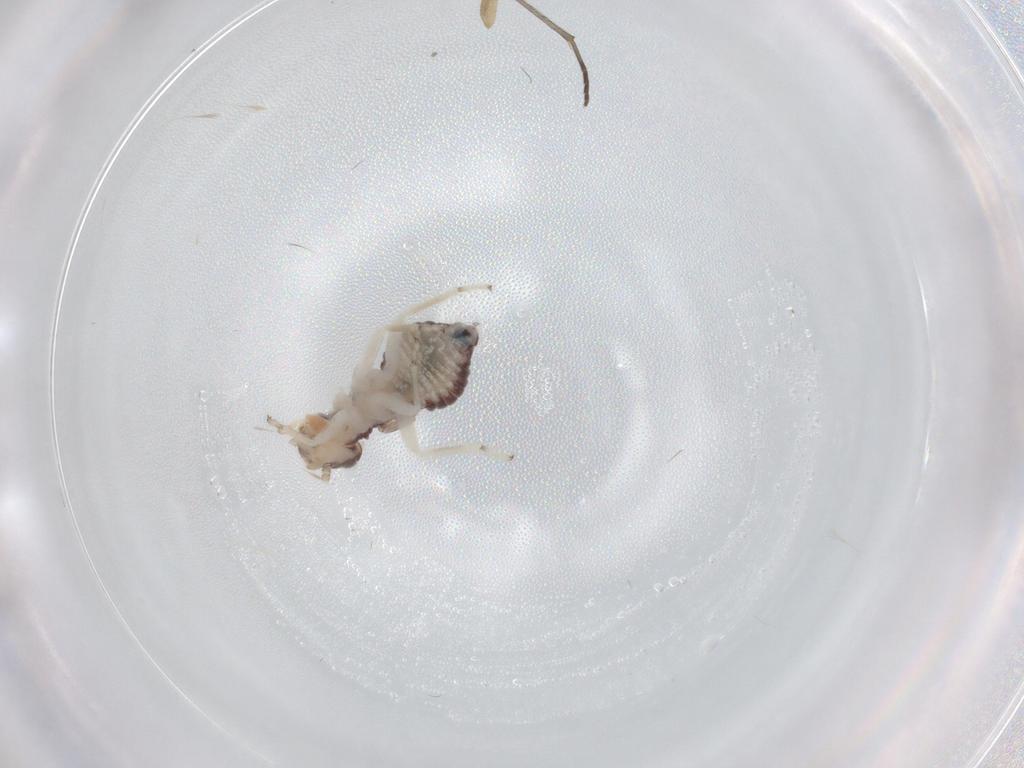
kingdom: Animalia
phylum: Arthropoda
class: Insecta
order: Psocodea
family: Myopsocidae
